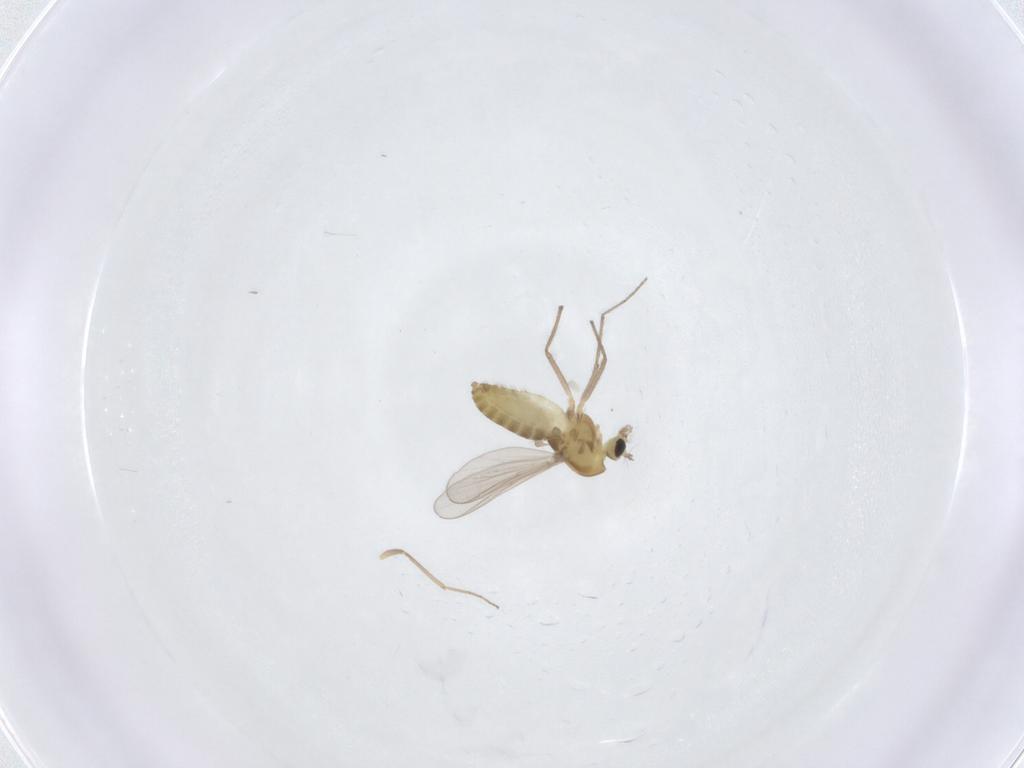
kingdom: Animalia
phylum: Arthropoda
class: Insecta
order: Diptera
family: Chironomidae
